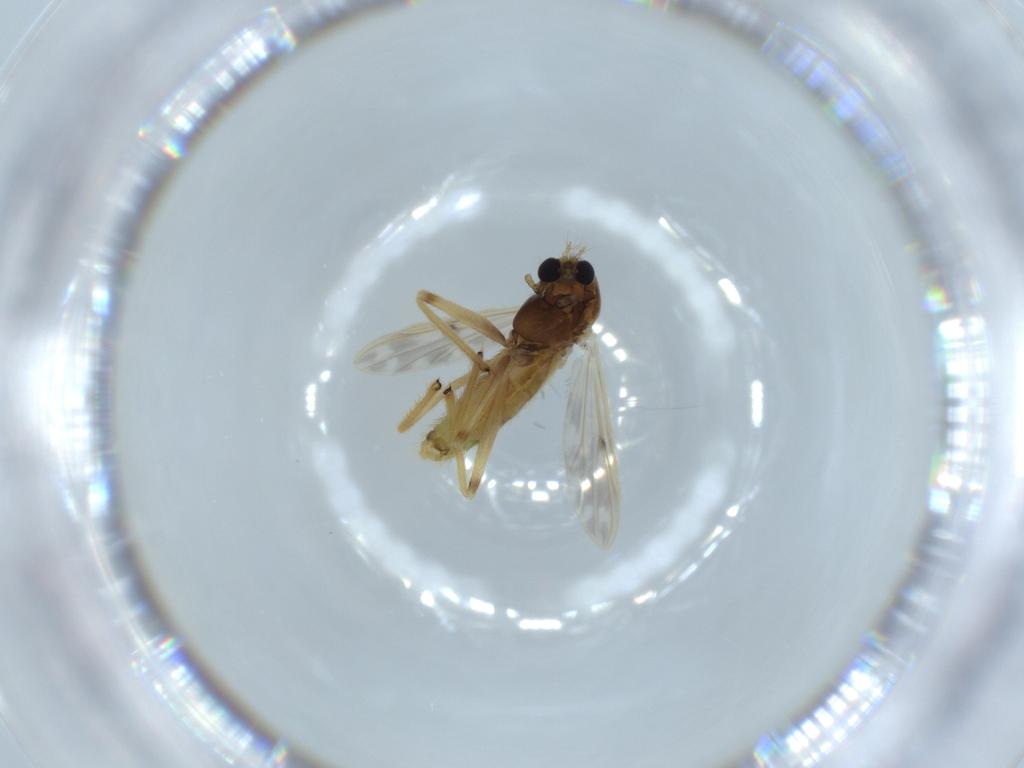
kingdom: Animalia
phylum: Arthropoda
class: Insecta
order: Diptera
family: Chironomidae
